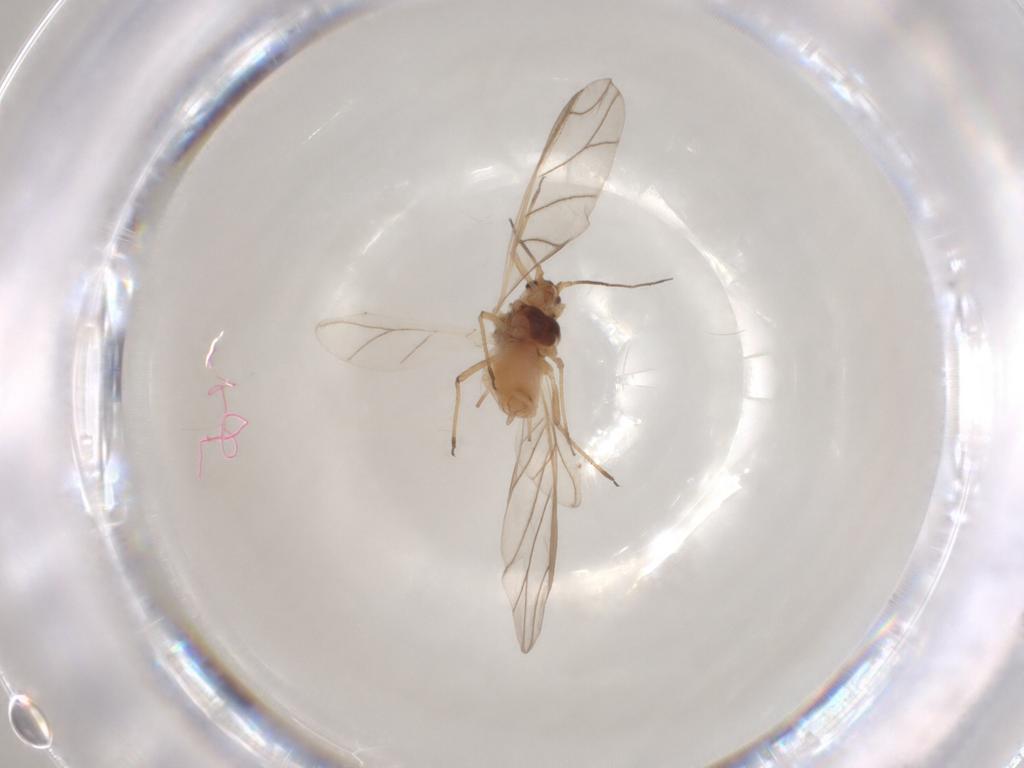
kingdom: Animalia
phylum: Arthropoda
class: Insecta
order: Hemiptera
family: Aphididae
